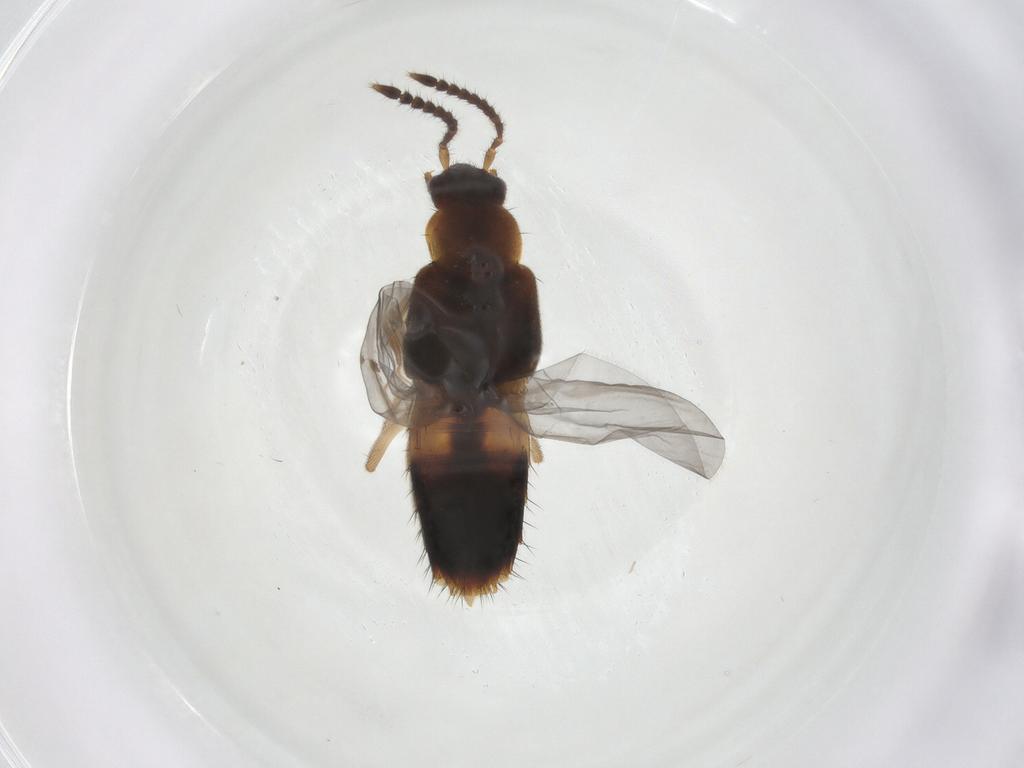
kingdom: Animalia
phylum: Arthropoda
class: Insecta
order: Coleoptera
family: Staphylinidae
